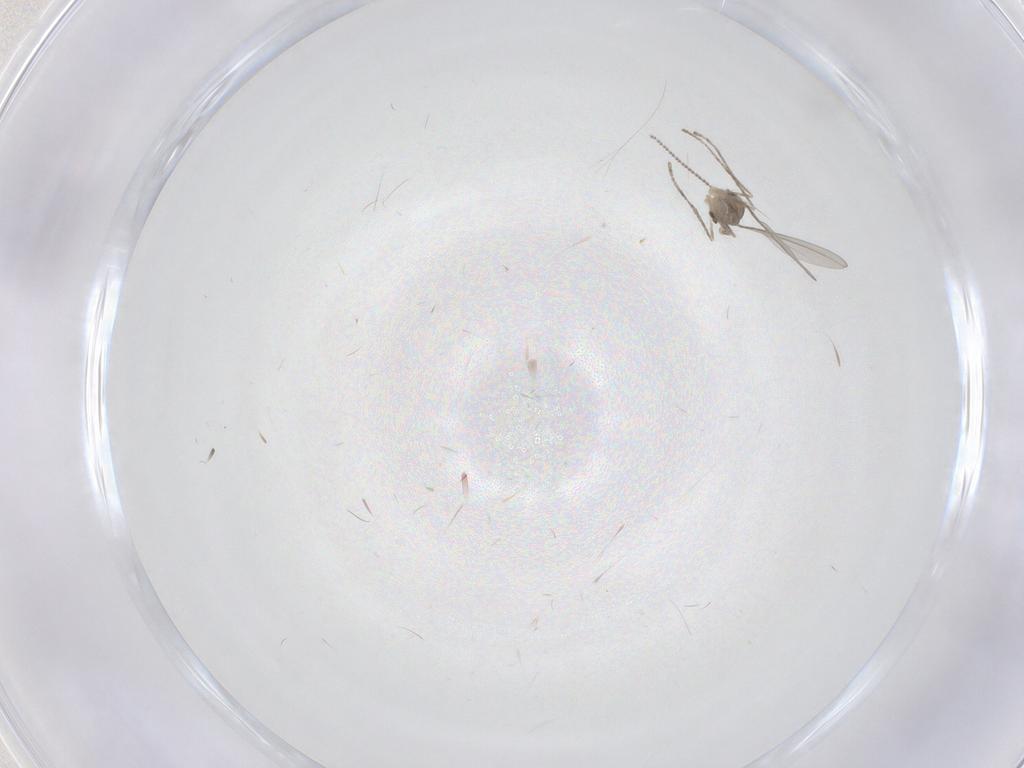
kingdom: Animalia
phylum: Arthropoda
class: Insecta
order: Diptera
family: Cecidomyiidae
